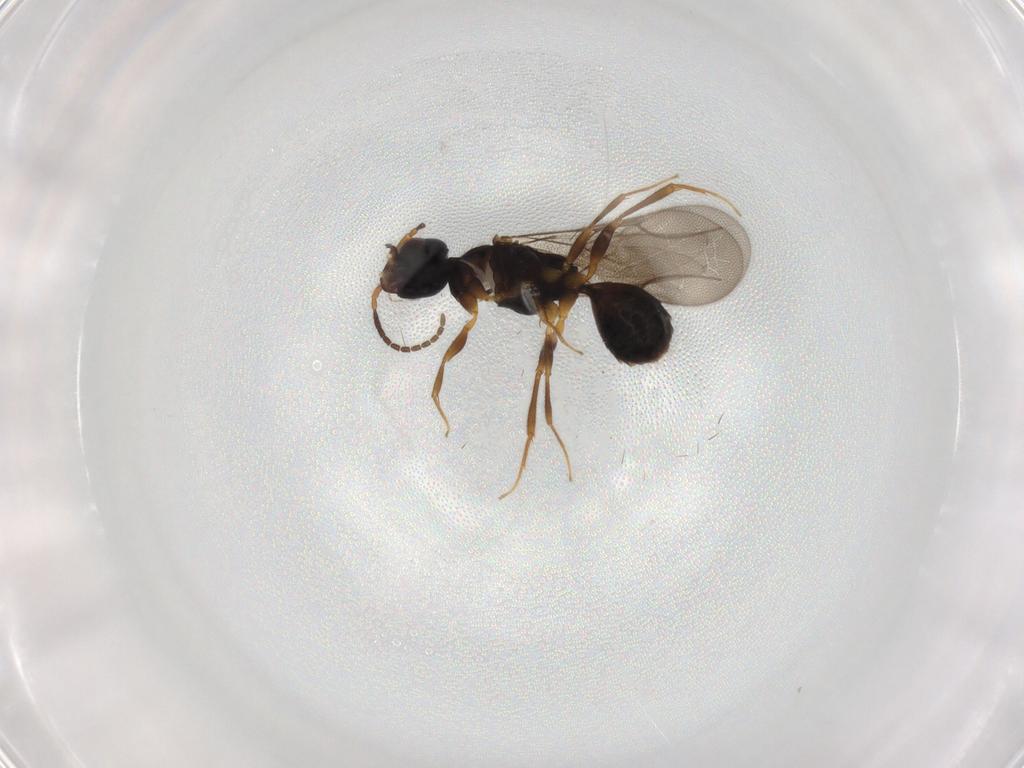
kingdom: Animalia
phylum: Arthropoda
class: Insecta
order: Hymenoptera
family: Bethylidae
